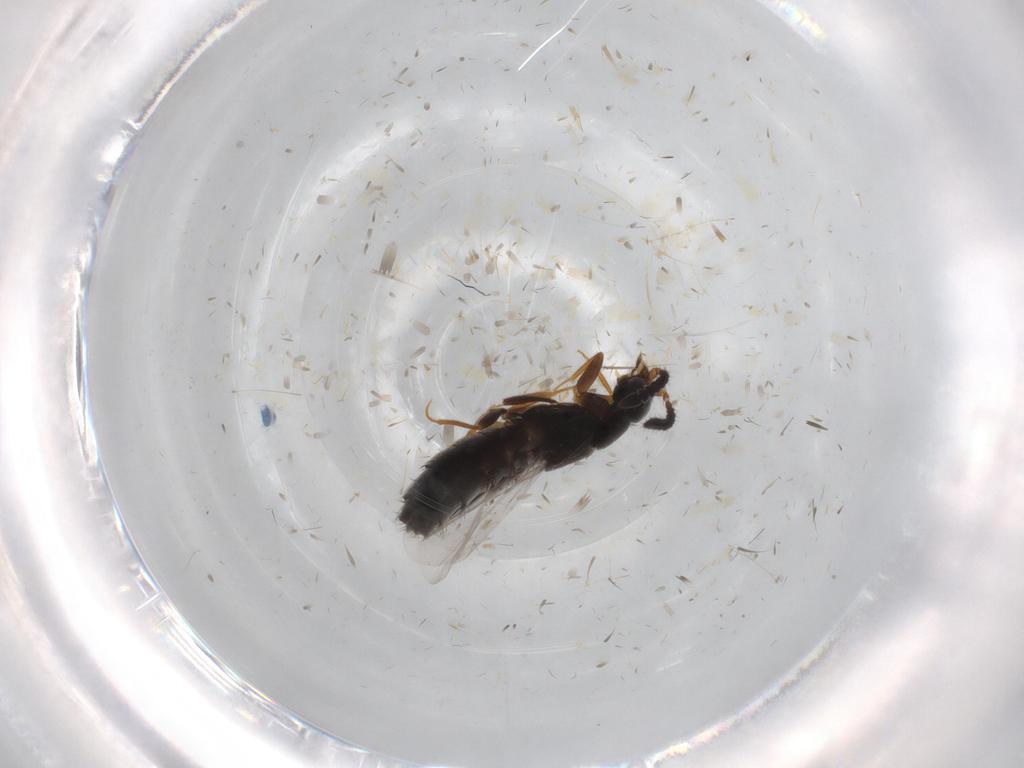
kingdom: Animalia
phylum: Arthropoda
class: Insecta
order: Coleoptera
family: Staphylinidae
